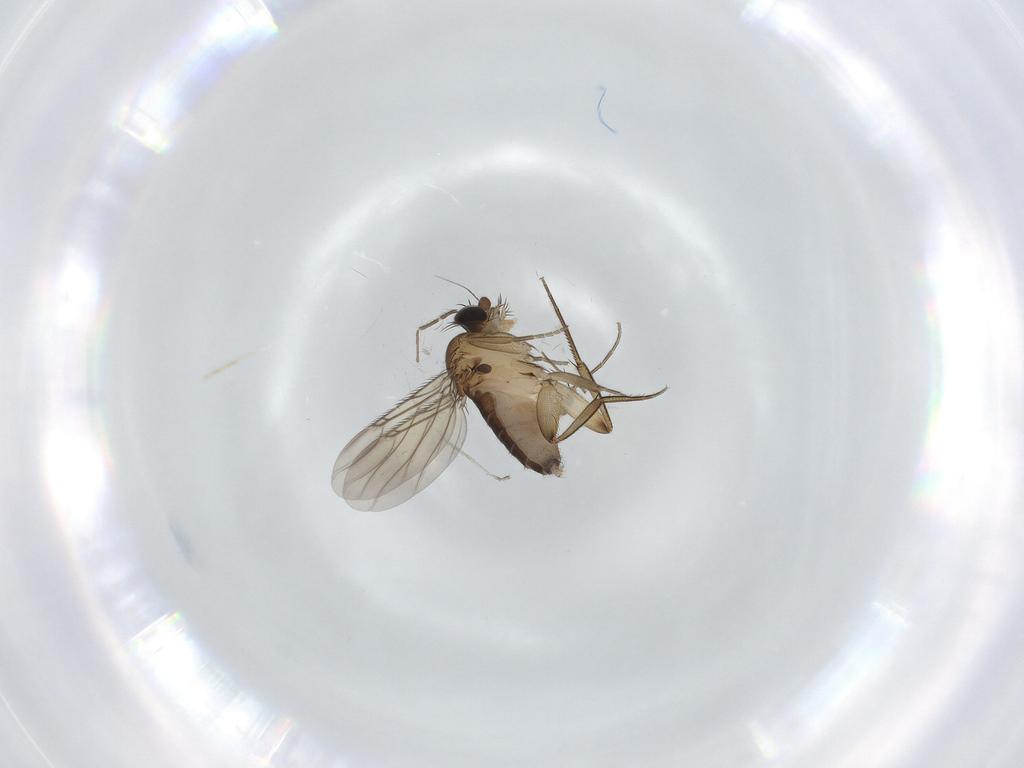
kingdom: Animalia
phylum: Arthropoda
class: Insecta
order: Diptera
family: Phoridae
